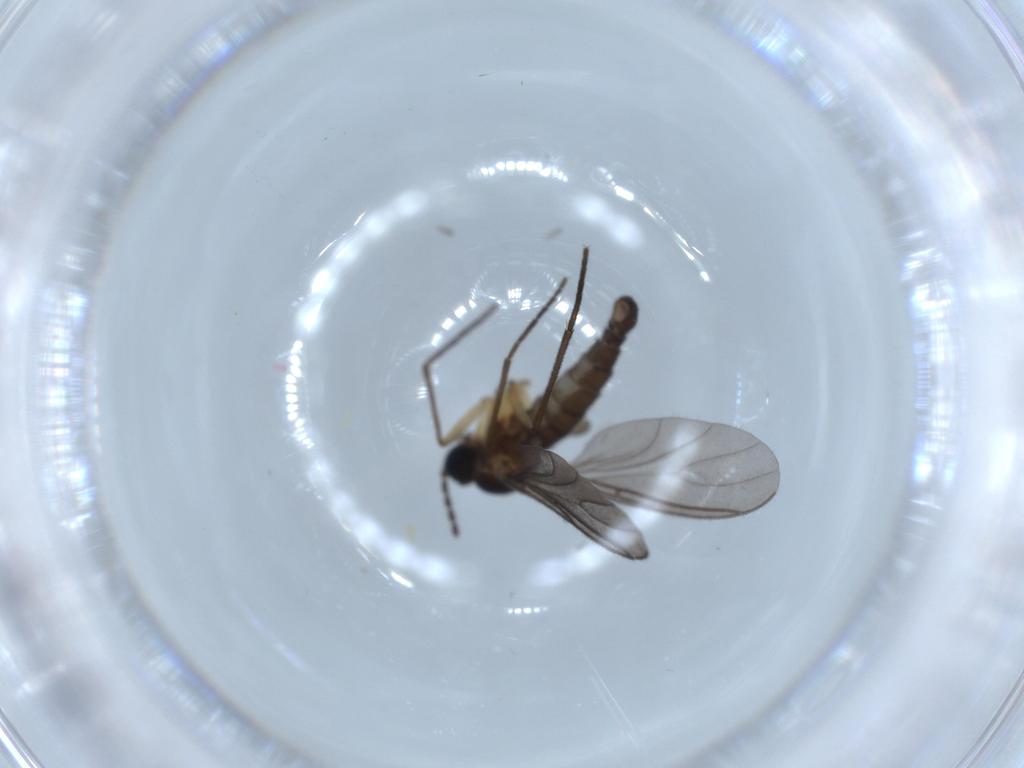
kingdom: Animalia
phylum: Arthropoda
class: Insecta
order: Diptera
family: Sciaridae
